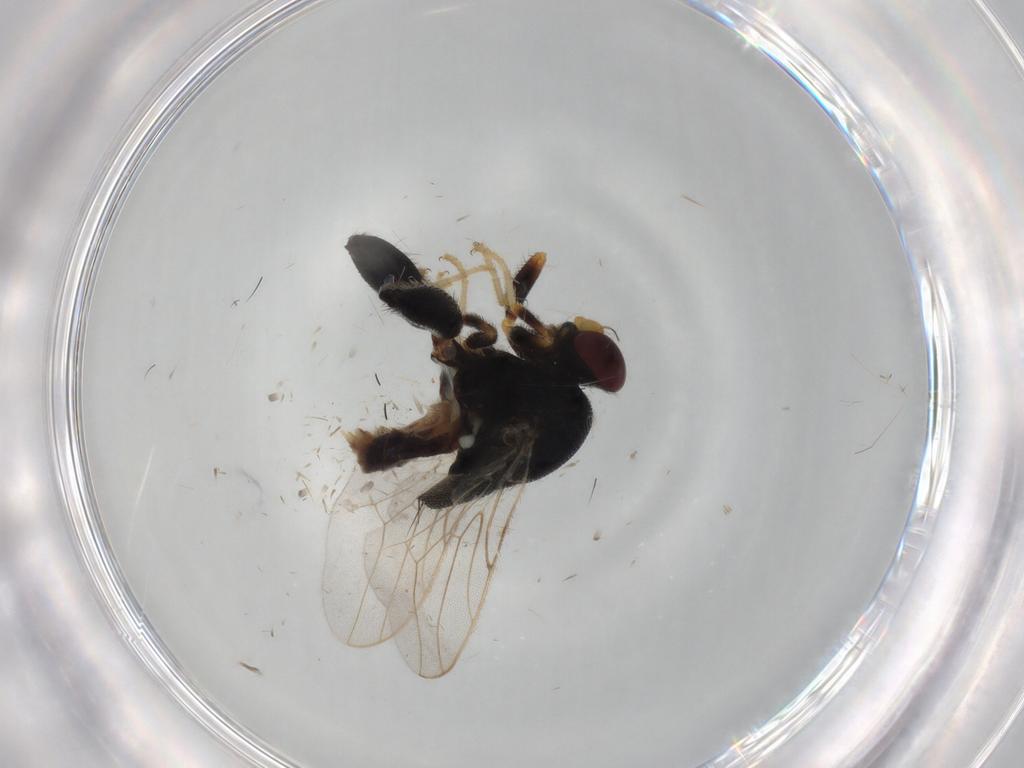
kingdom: Animalia
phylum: Arthropoda
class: Insecta
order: Diptera
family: Chloropidae
